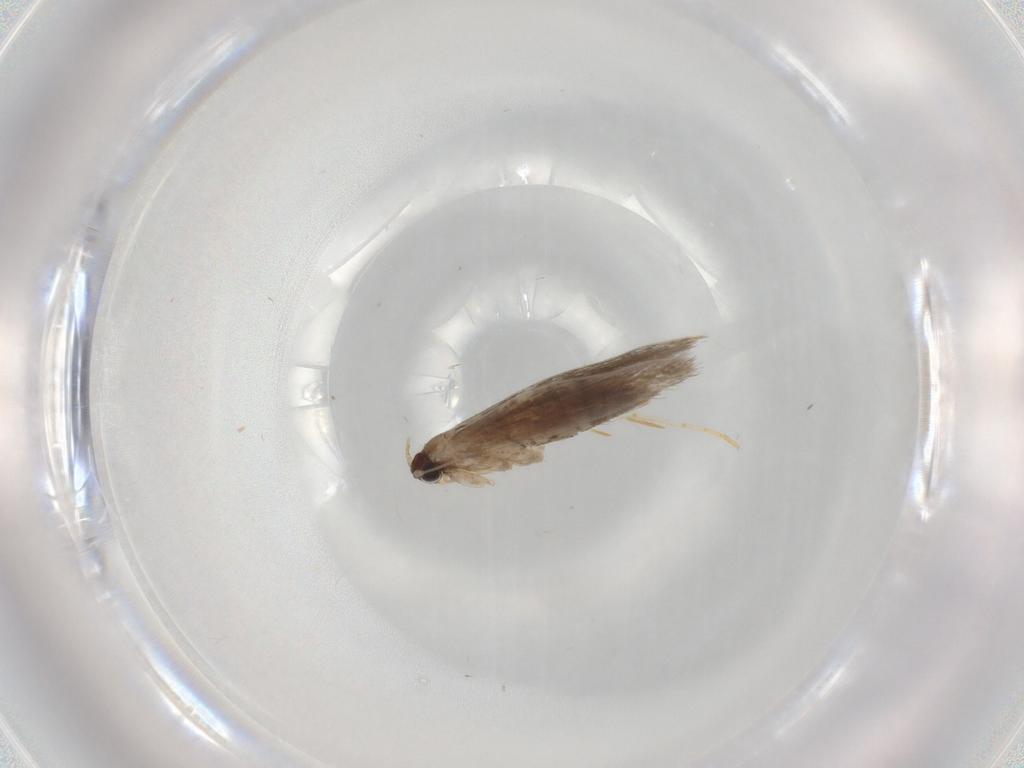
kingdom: Animalia
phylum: Arthropoda
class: Insecta
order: Lepidoptera
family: Tineidae
